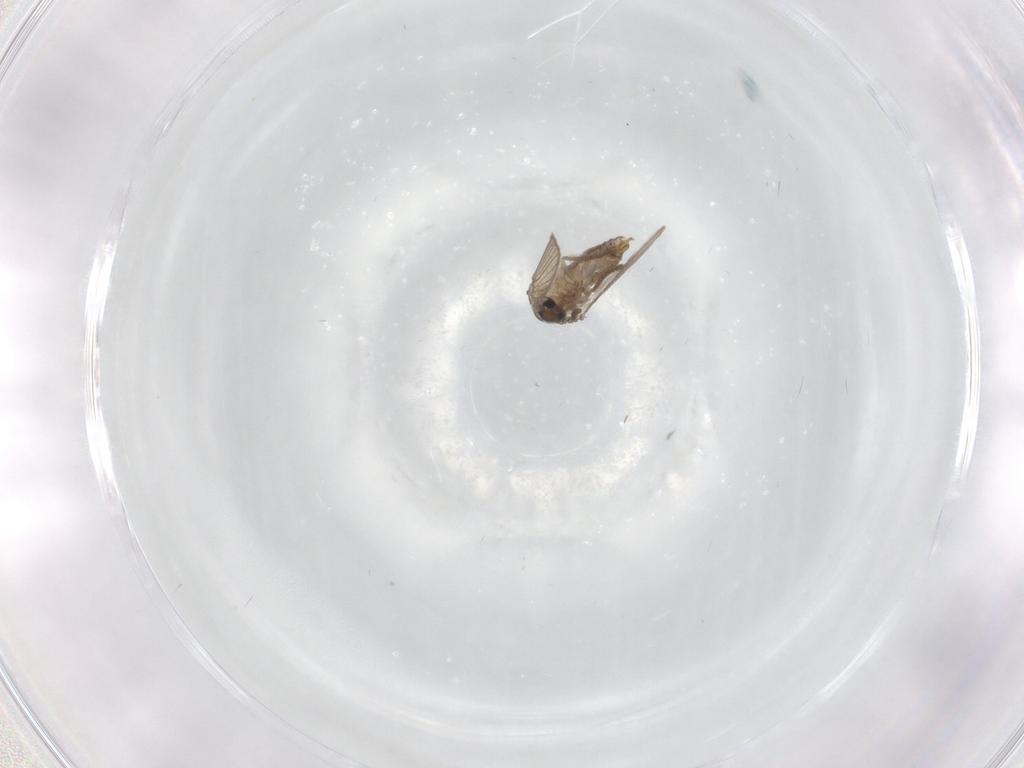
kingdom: Animalia
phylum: Arthropoda
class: Insecta
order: Diptera
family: Psychodidae
